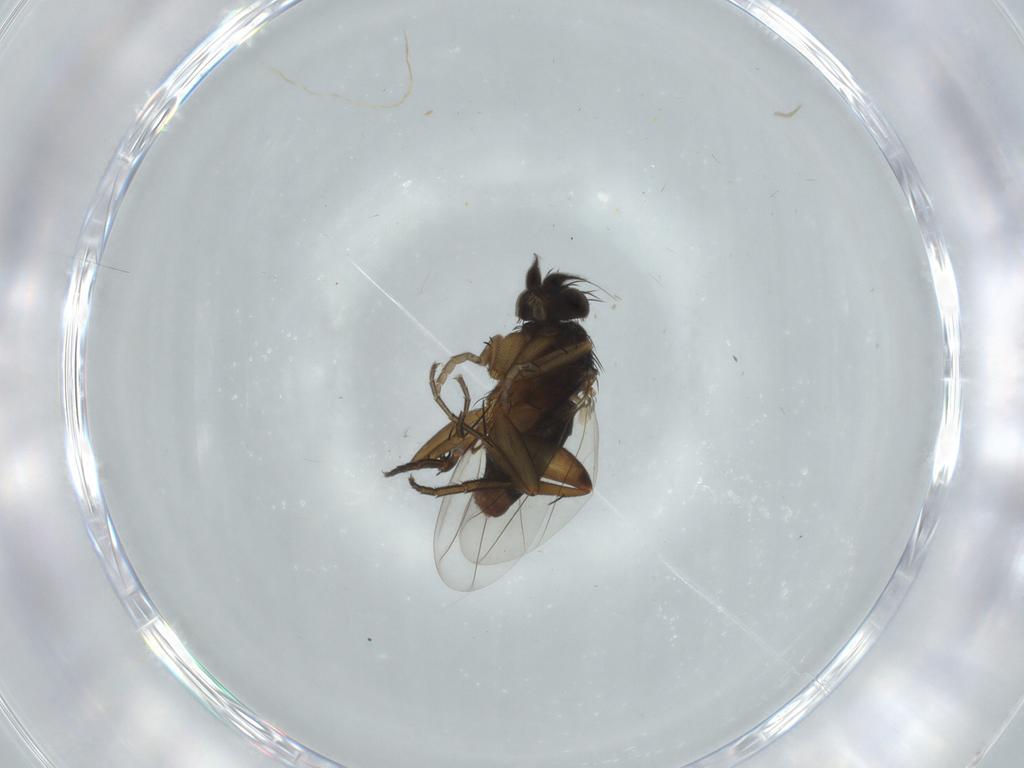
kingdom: Animalia
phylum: Arthropoda
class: Insecta
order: Diptera
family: Phoridae
